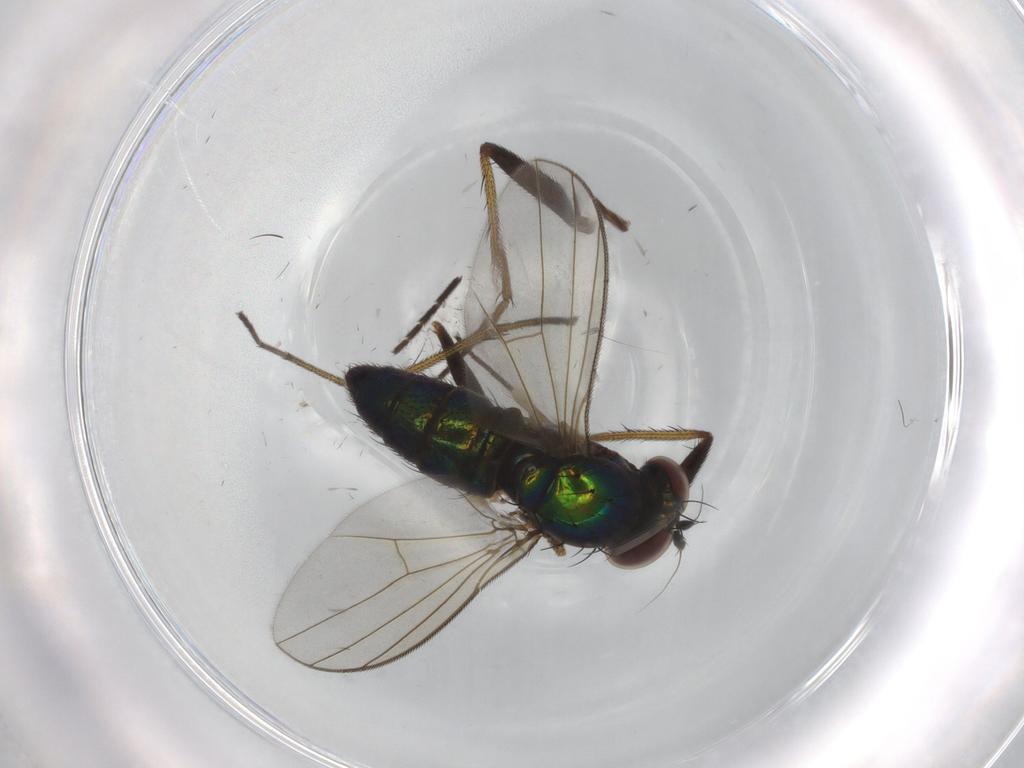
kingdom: Animalia
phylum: Arthropoda
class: Insecta
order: Diptera
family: Dolichopodidae
